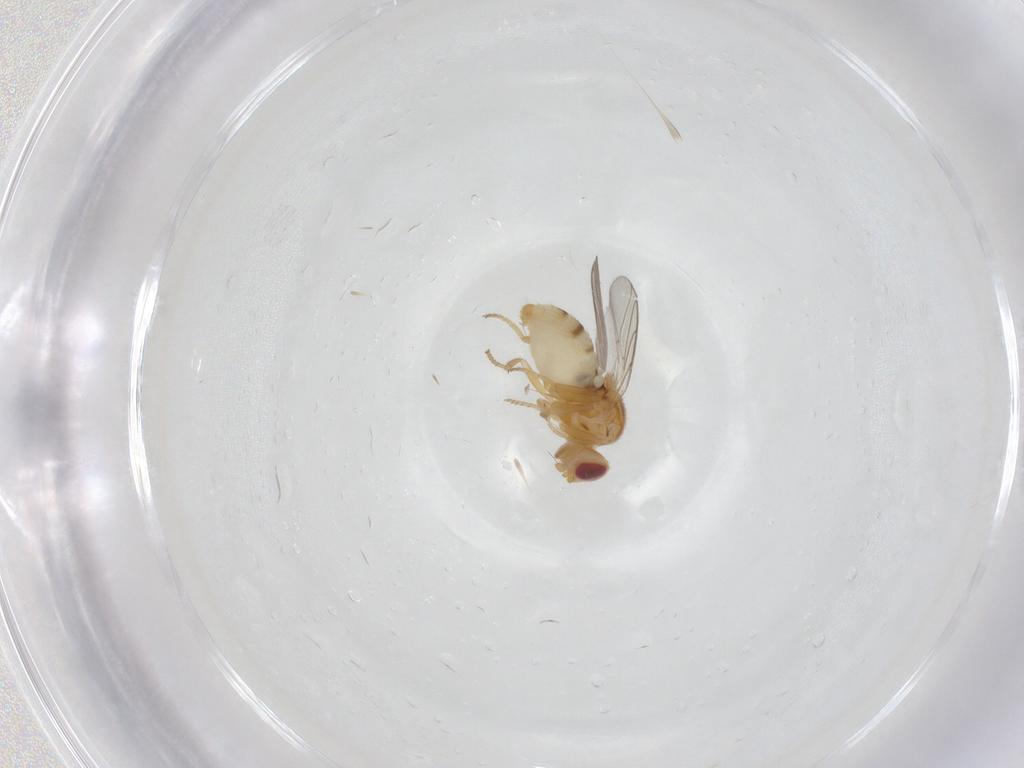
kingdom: Animalia
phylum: Arthropoda
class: Insecta
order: Diptera
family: Chloropidae
